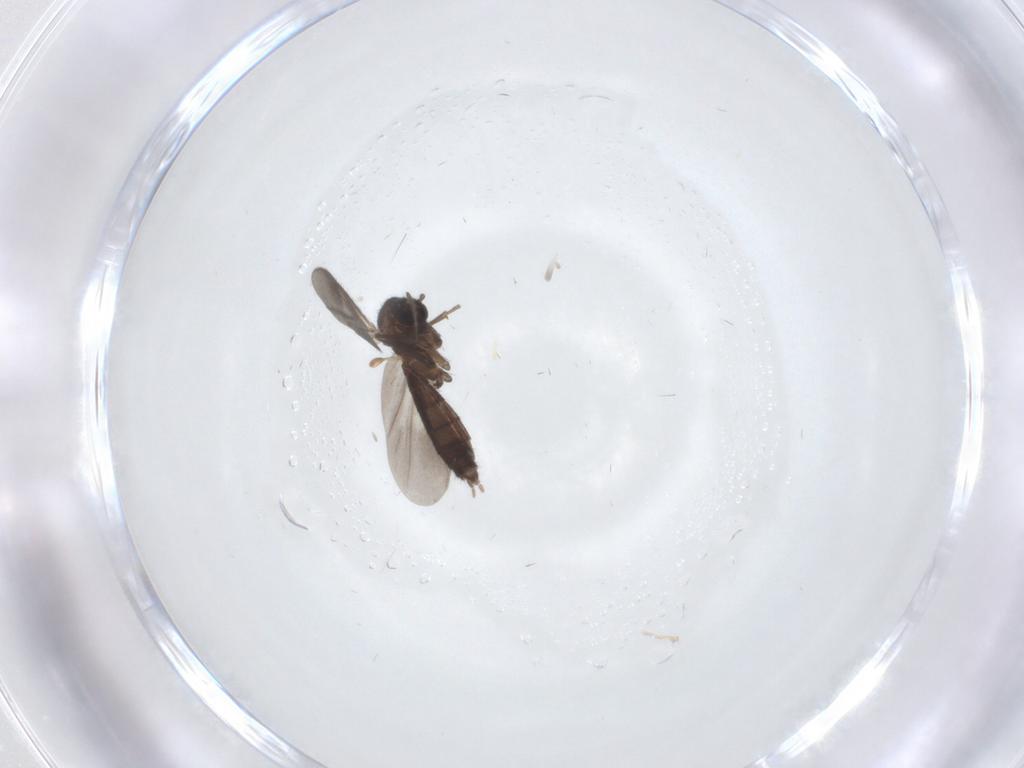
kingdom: Animalia
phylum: Arthropoda
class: Insecta
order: Diptera
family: Mycetophilidae
